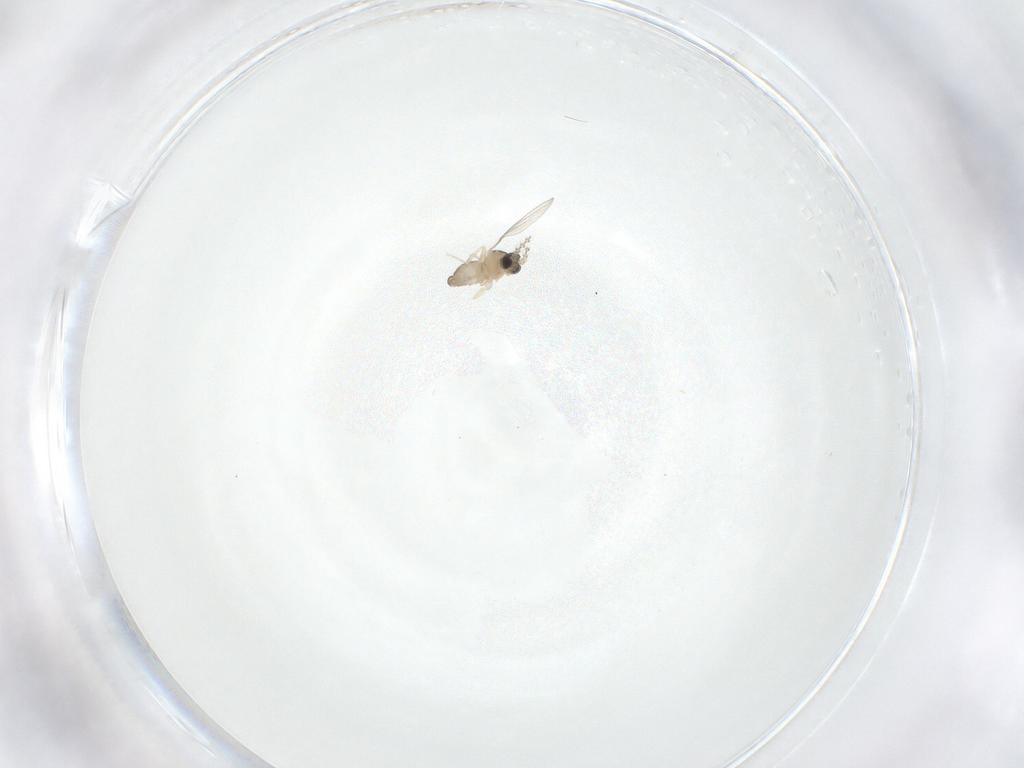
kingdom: Animalia
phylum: Arthropoda
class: Insecta
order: Diptera
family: Cecidomyiidae
